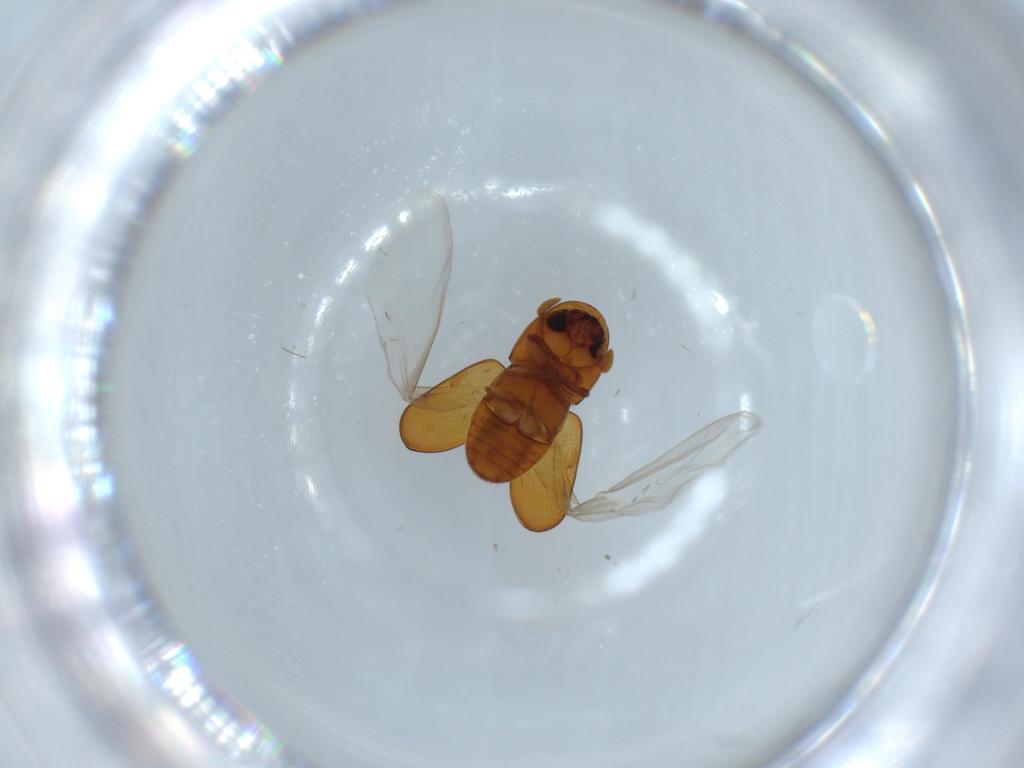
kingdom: Animalia
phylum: Arthropoda
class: Insecta
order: Coleoptera
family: Curculionidae
